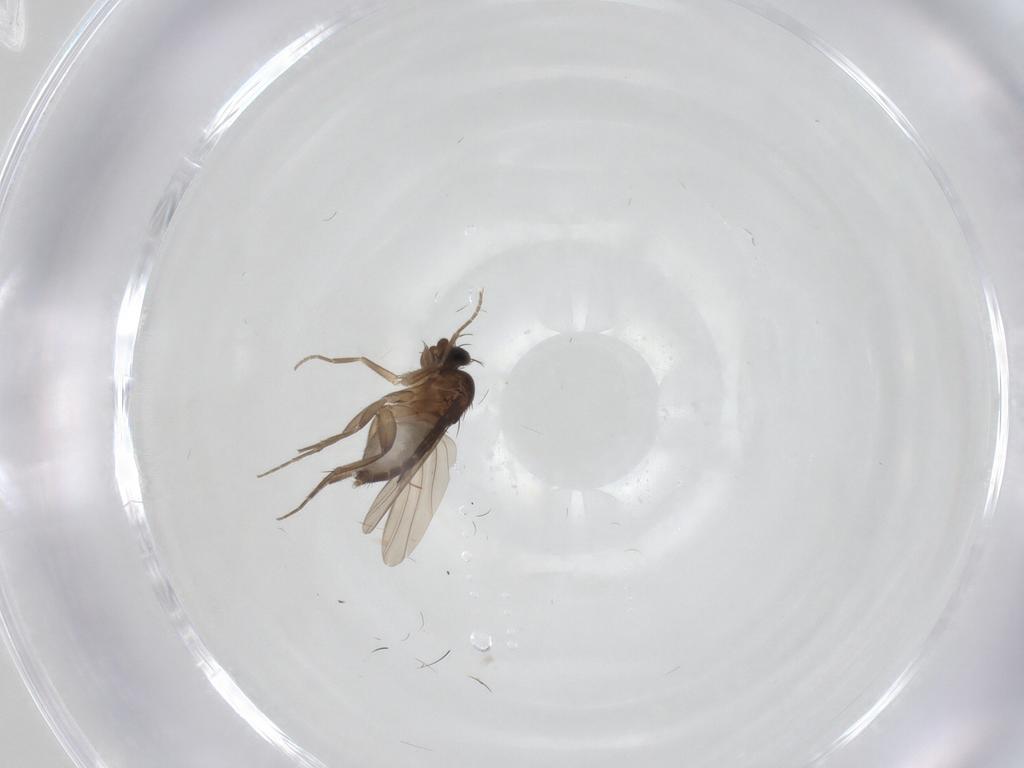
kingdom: Animalia
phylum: Arthropoda
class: Insecta
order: Diptera
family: Phoridae
